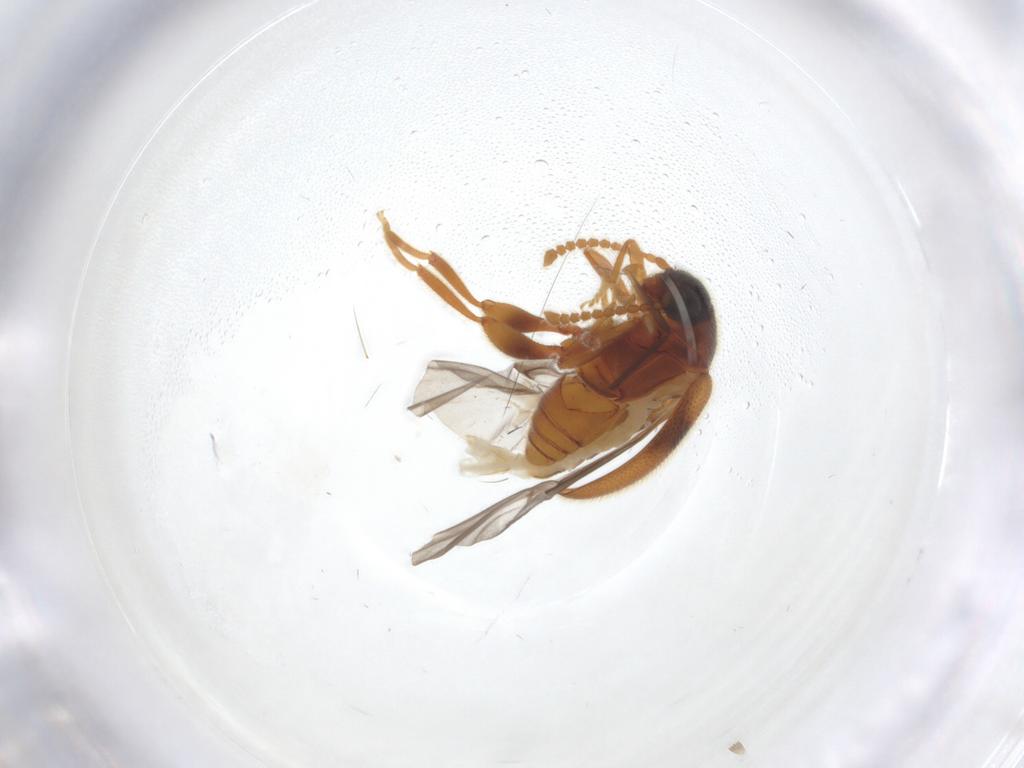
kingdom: Animalia
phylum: Arthropoda
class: Insecta
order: Coleoptera
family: Aderidae
